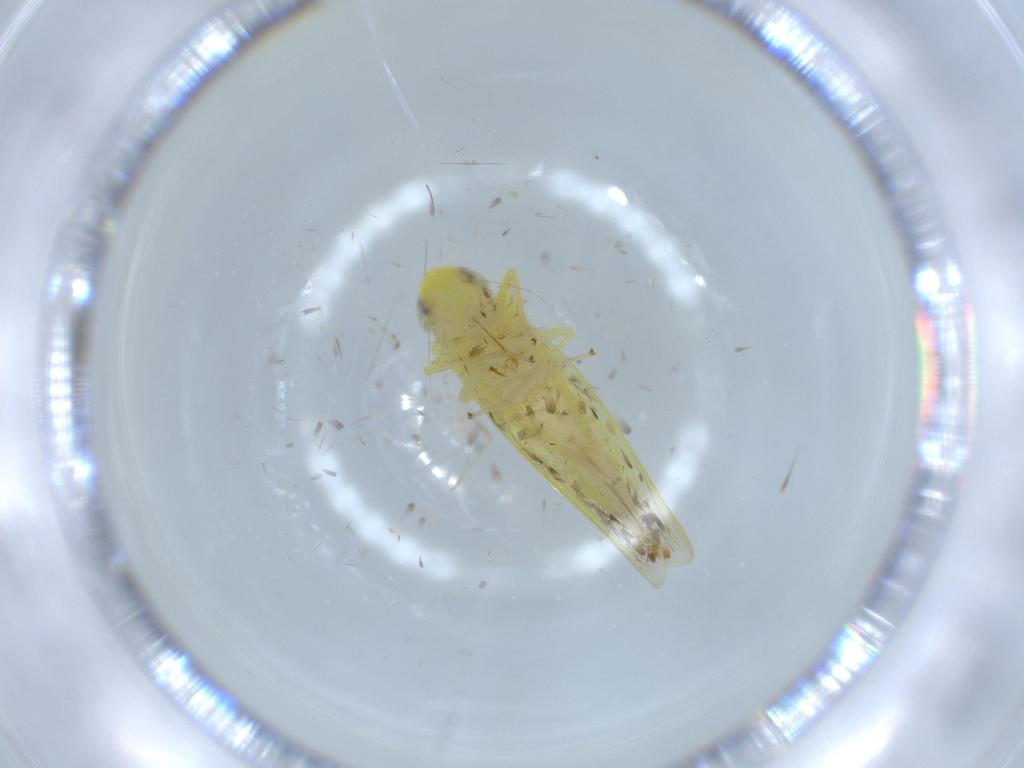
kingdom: Animalia
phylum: Arthropoda
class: Insecta
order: Hemiptera
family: Cicadellidae
